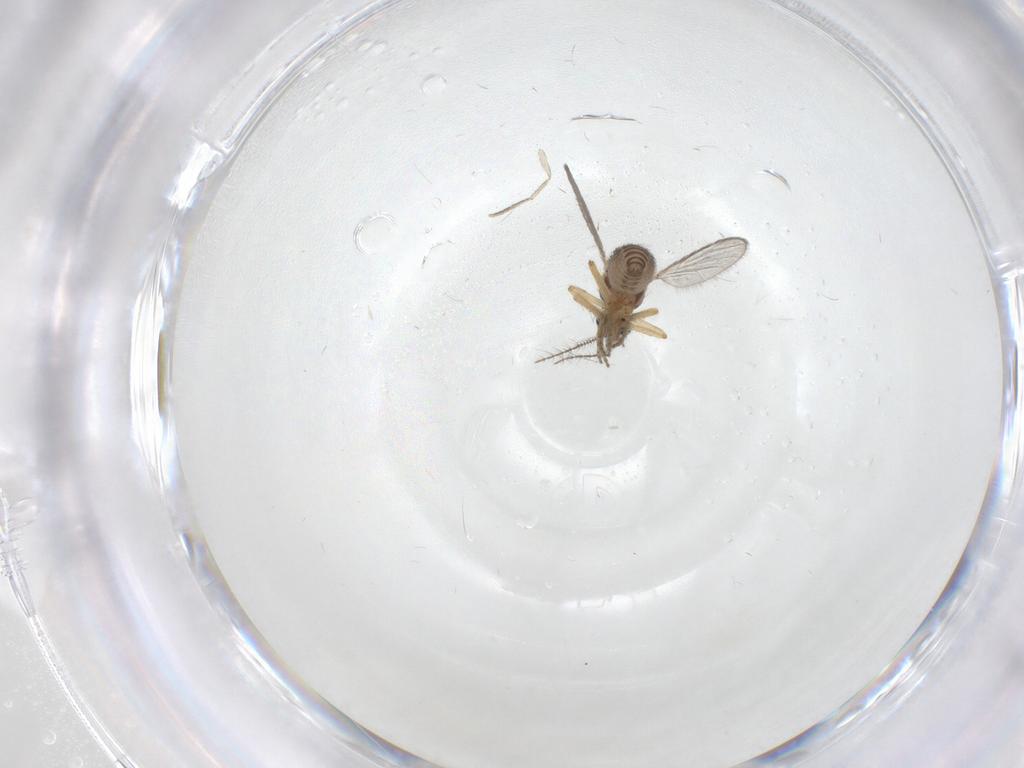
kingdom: Animalia
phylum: Arthropoda
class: Insecta
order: Diptera
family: Ceratopogonidae
